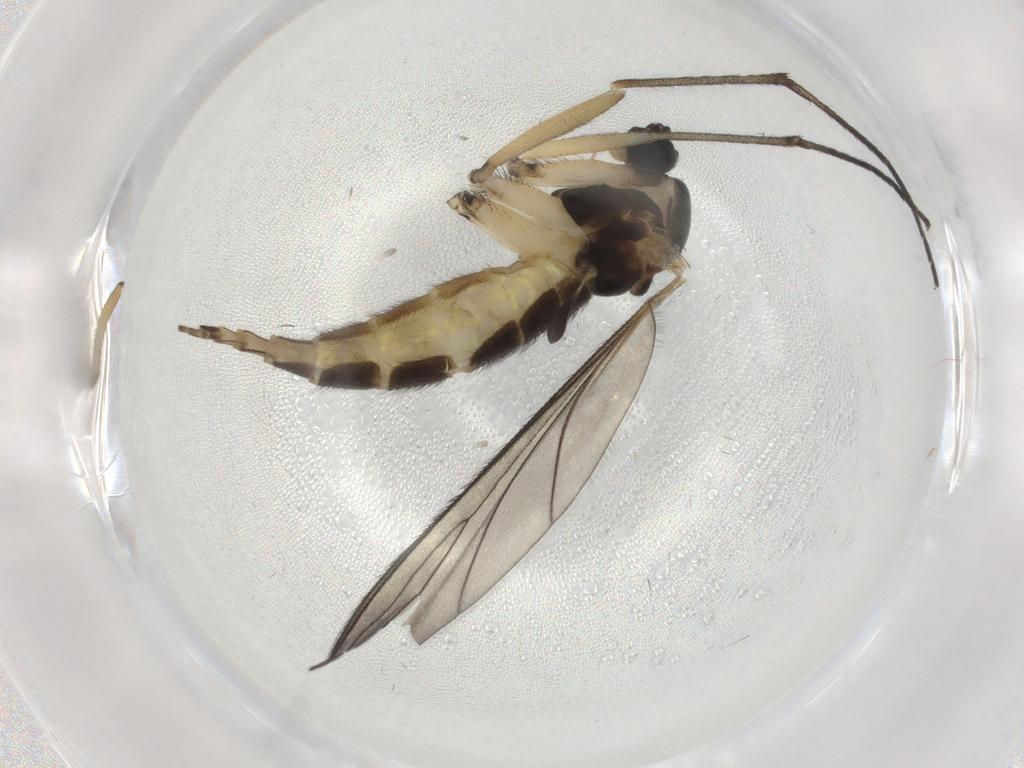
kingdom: Animalia
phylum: Arthropoda
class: Insecta
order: Diptera
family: Sciaridae
